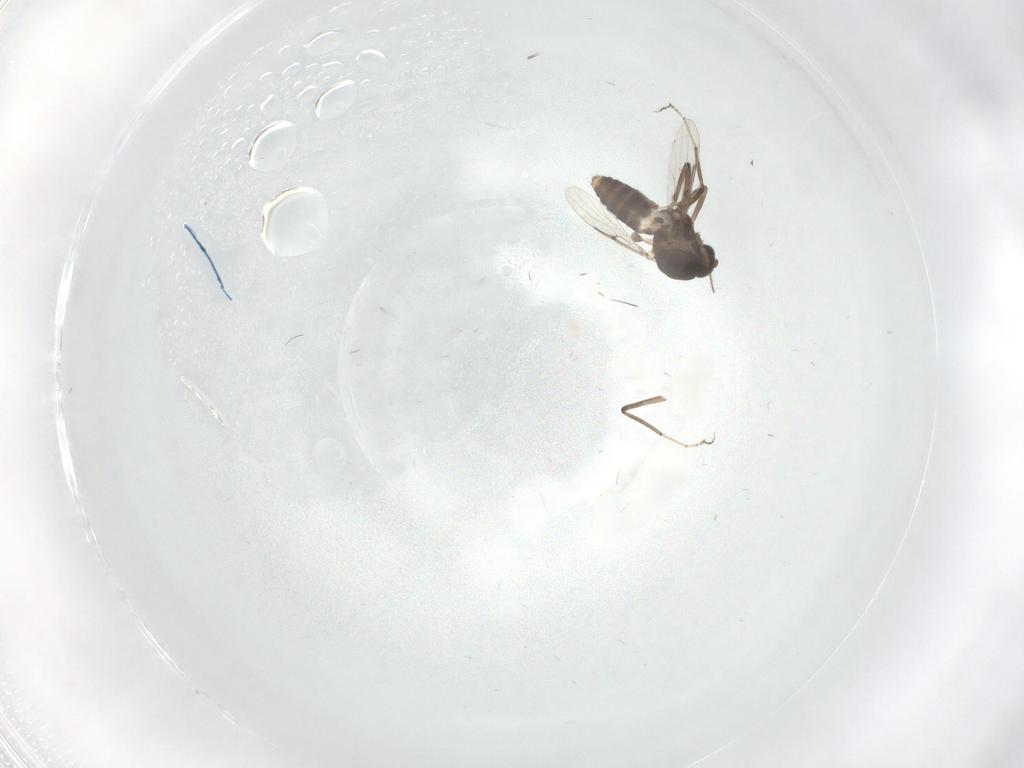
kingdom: Animalia
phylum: Arthropoda
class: Insecta
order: Diptera
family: Ceratopogonidae
